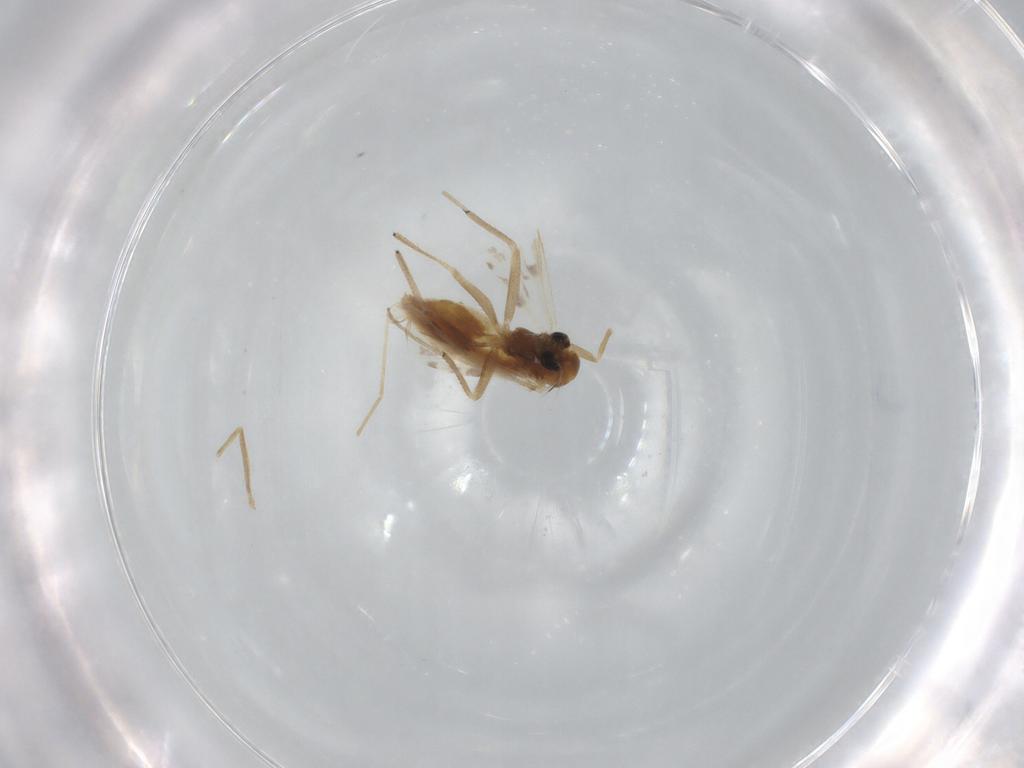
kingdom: Animalia
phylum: Arthropoda
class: Insecta
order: Diptera
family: Chironomidae
